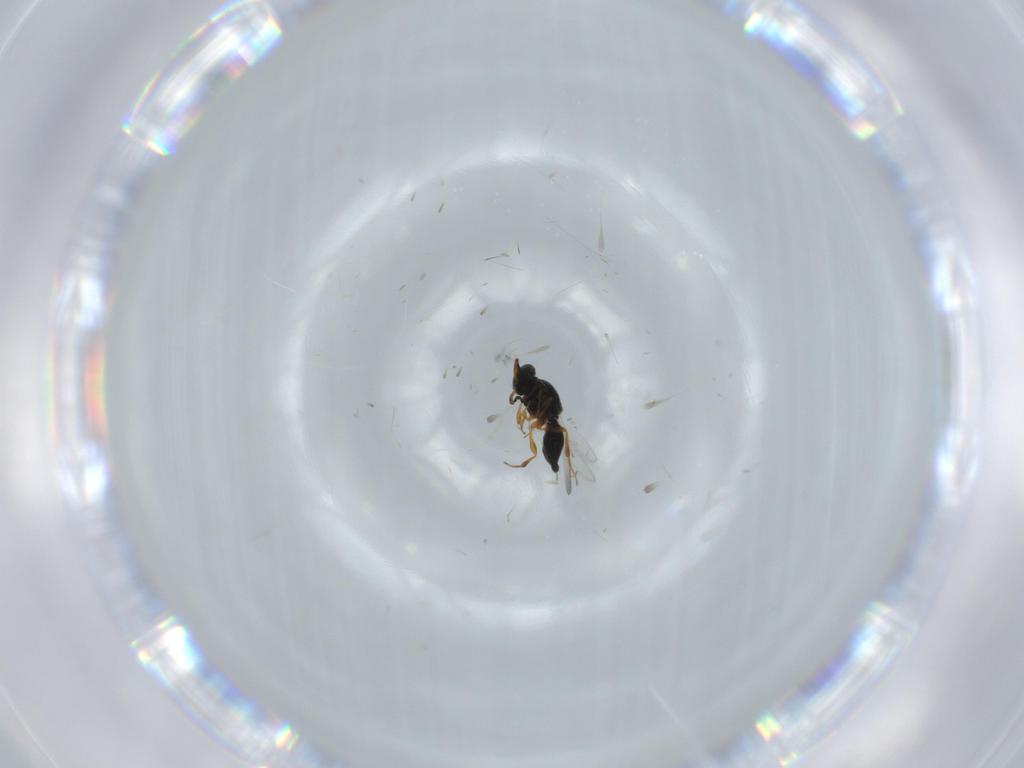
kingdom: Animalia
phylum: Arthropoda
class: Insecta
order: Hymenoptera
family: Platygastridae
